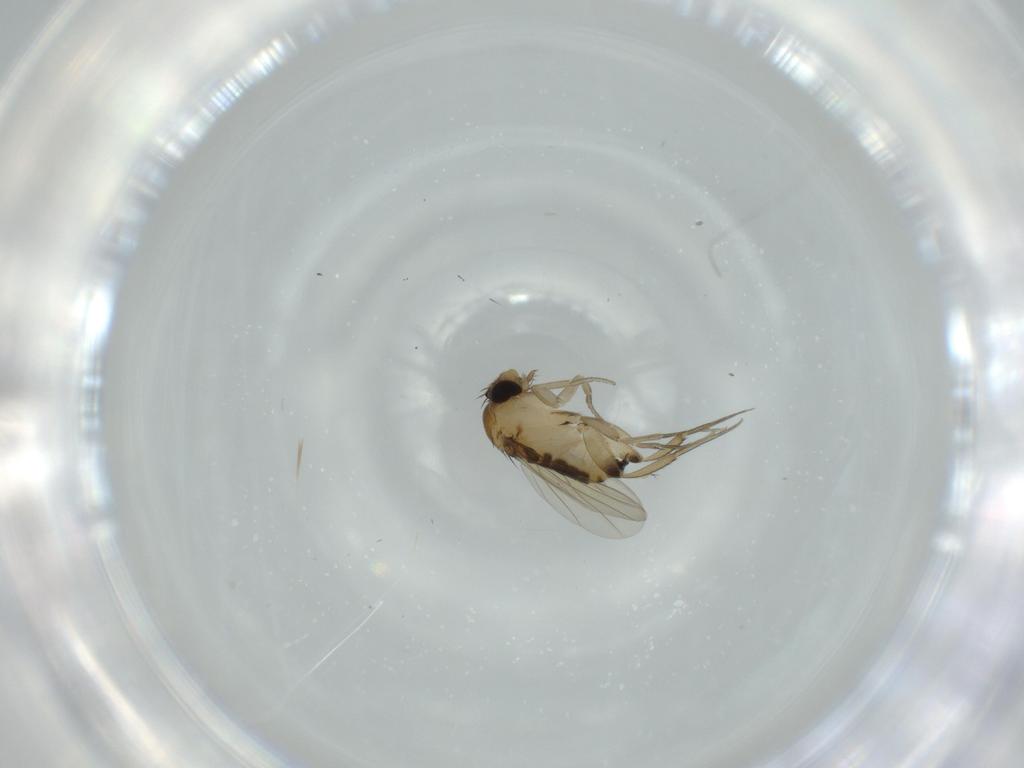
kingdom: Animalia
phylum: Arthropoda
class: Insecta
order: Diptera
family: Phoridae
